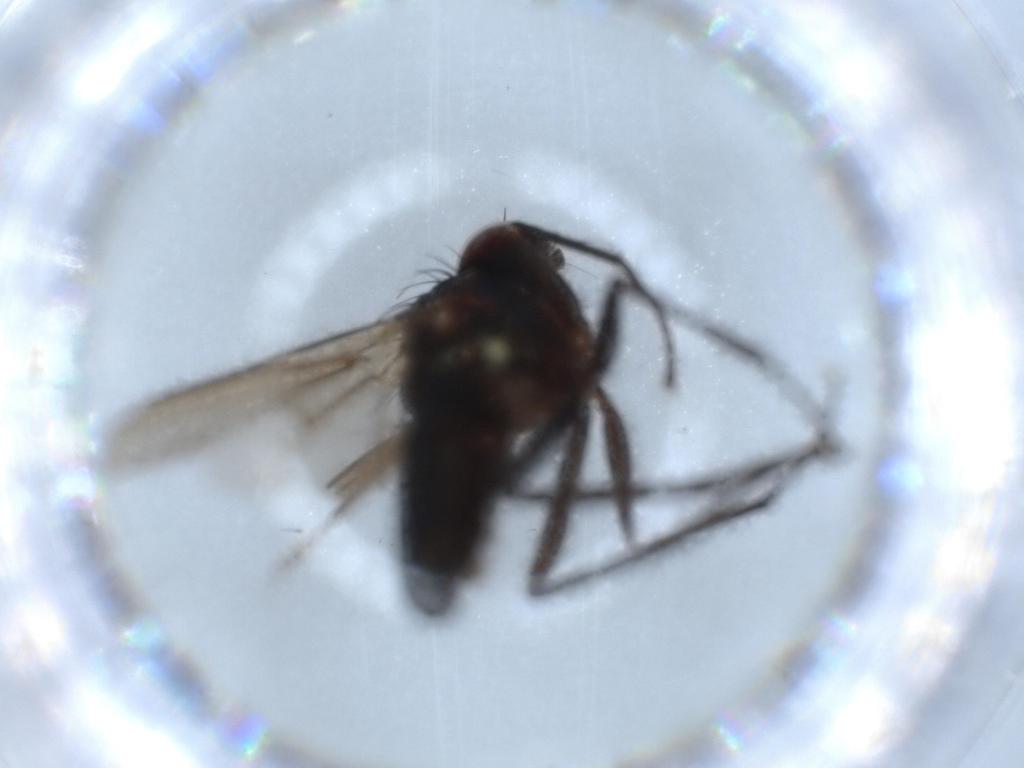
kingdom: Animalia
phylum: Arthropoda
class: Insecta
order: Diptera
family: Dolichopodidae
